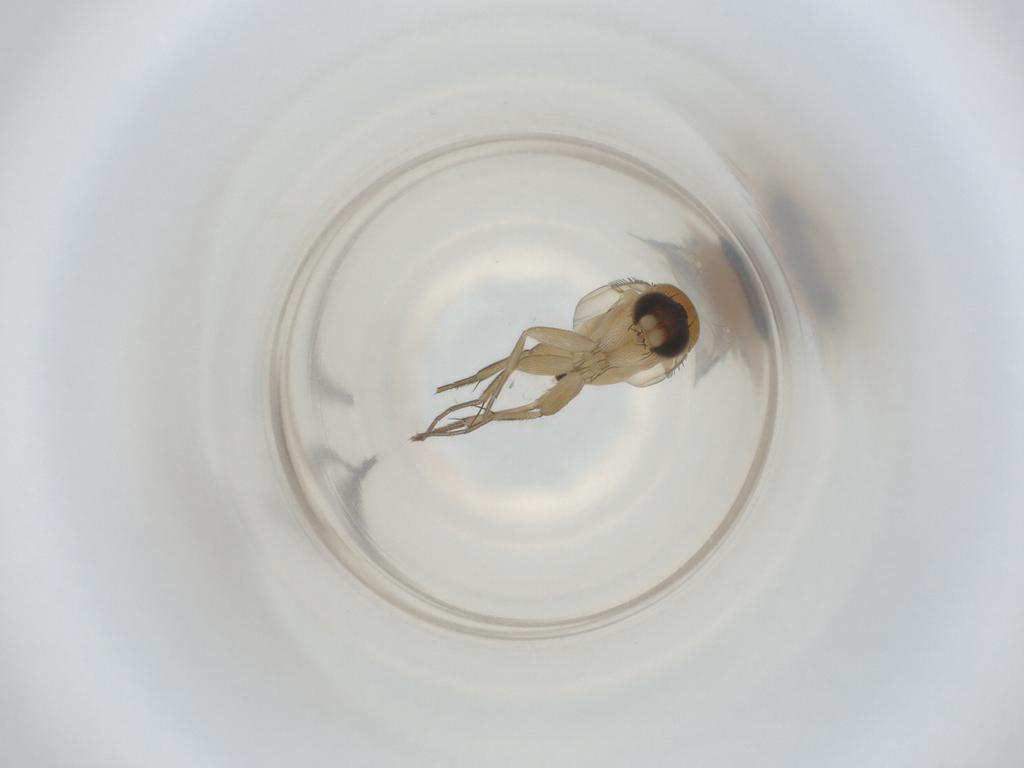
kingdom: Animalia
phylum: Arthropoda
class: Insecta
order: Diptera
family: Phoridae
